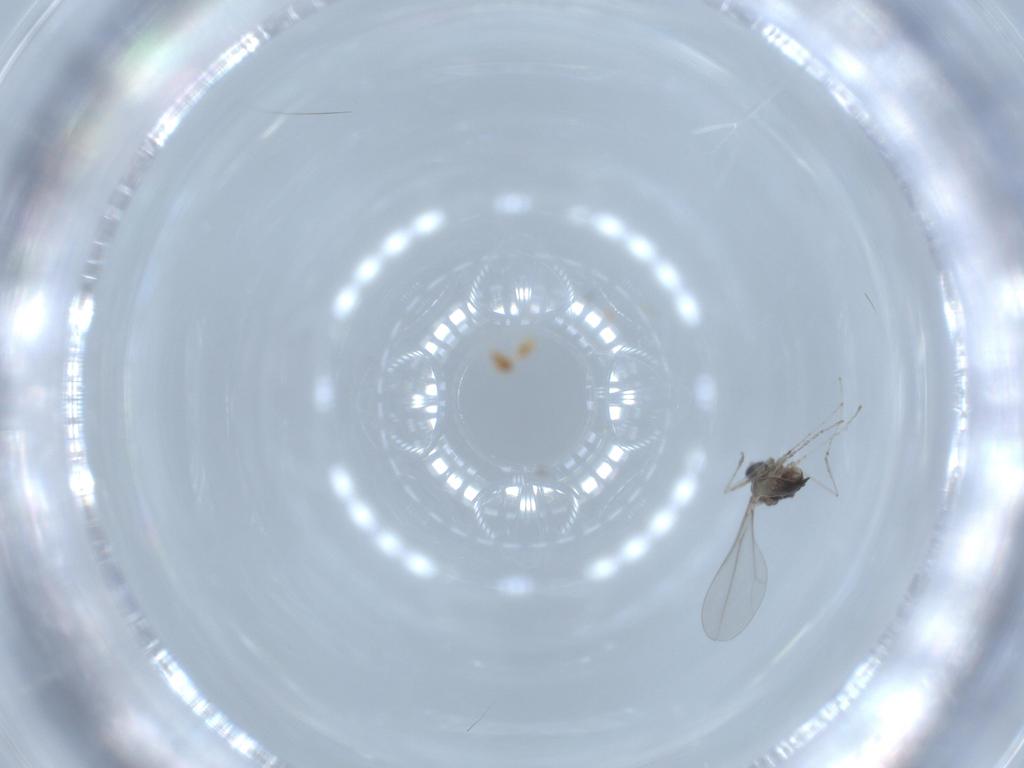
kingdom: Animalia
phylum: Arthropoda
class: Insecta
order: Diptera
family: Cecidomyiidae
